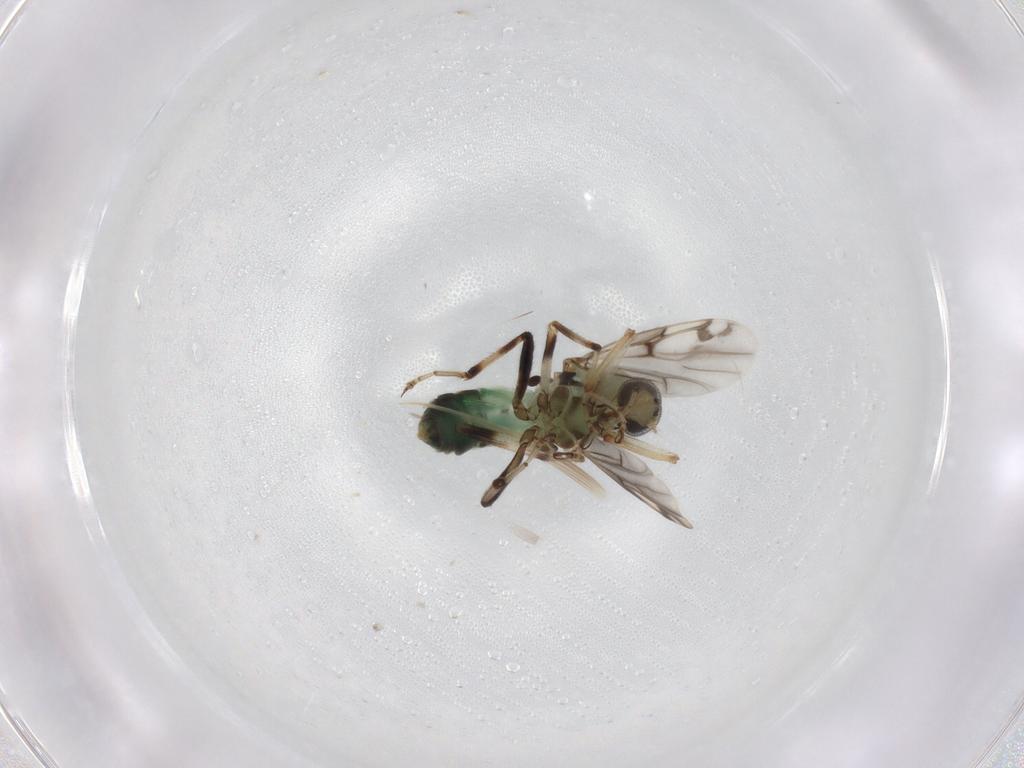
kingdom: Animalia
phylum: Arthropoda
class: Insecta
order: Diptera
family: Ceratopogonidae
